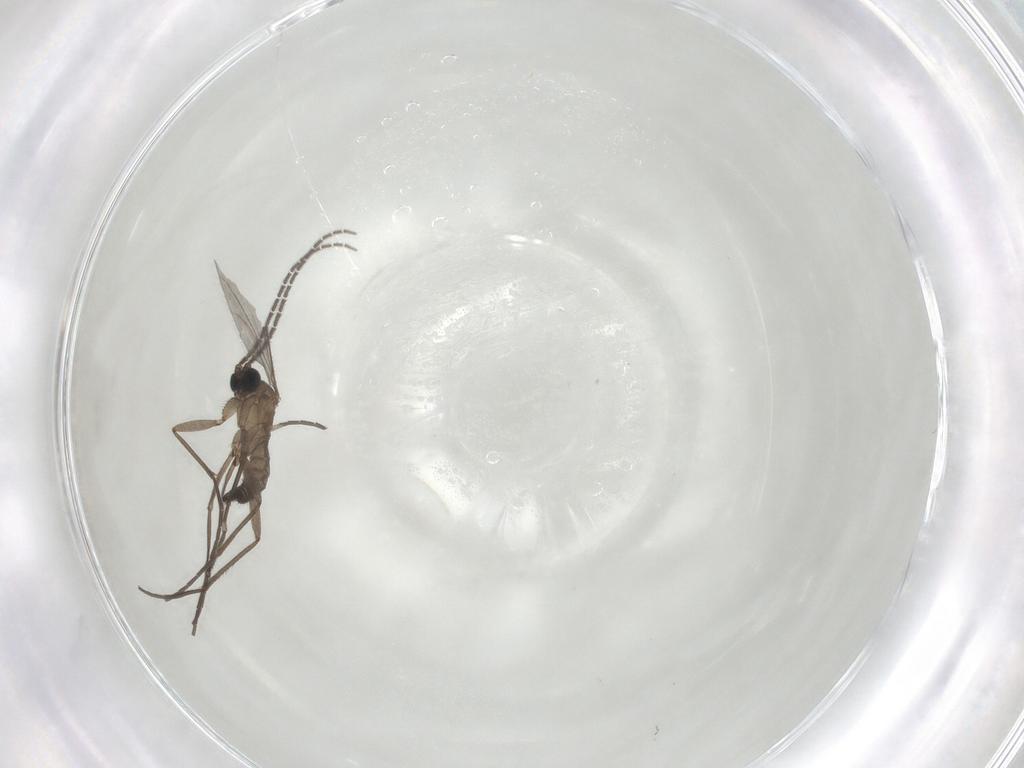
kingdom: Animalia
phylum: Arthropoda
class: Insecta
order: Diptera
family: Sciaridae
